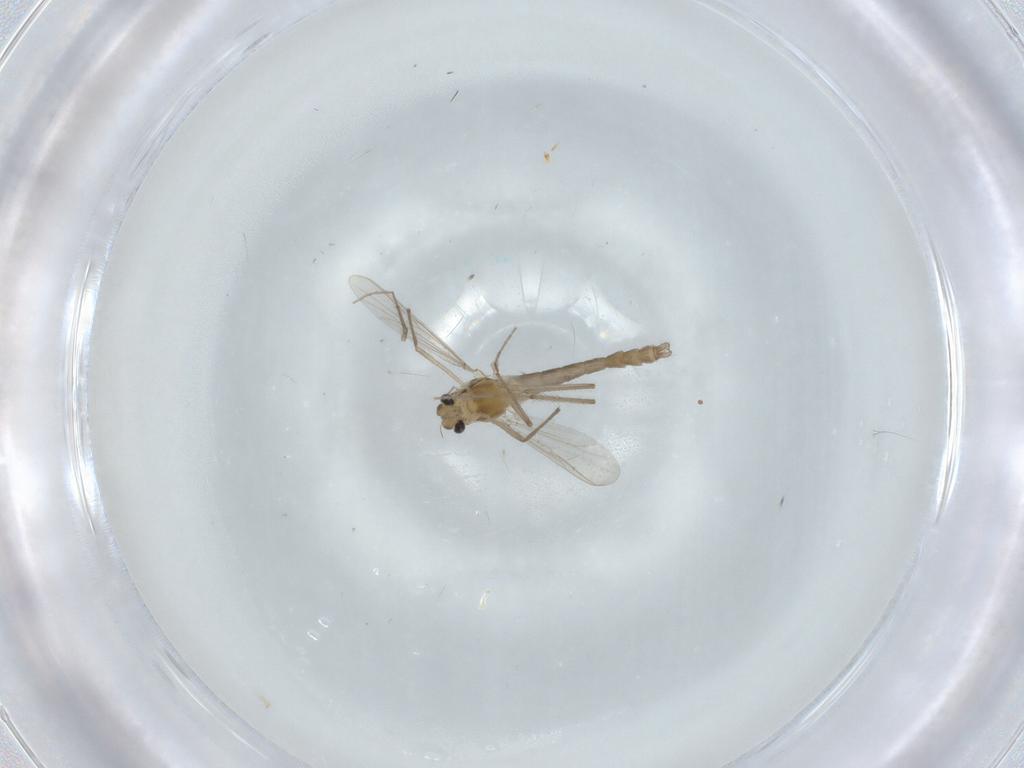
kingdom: Animalia
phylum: Arthropoda
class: Insecta
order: Diptera
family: Chironomidae
